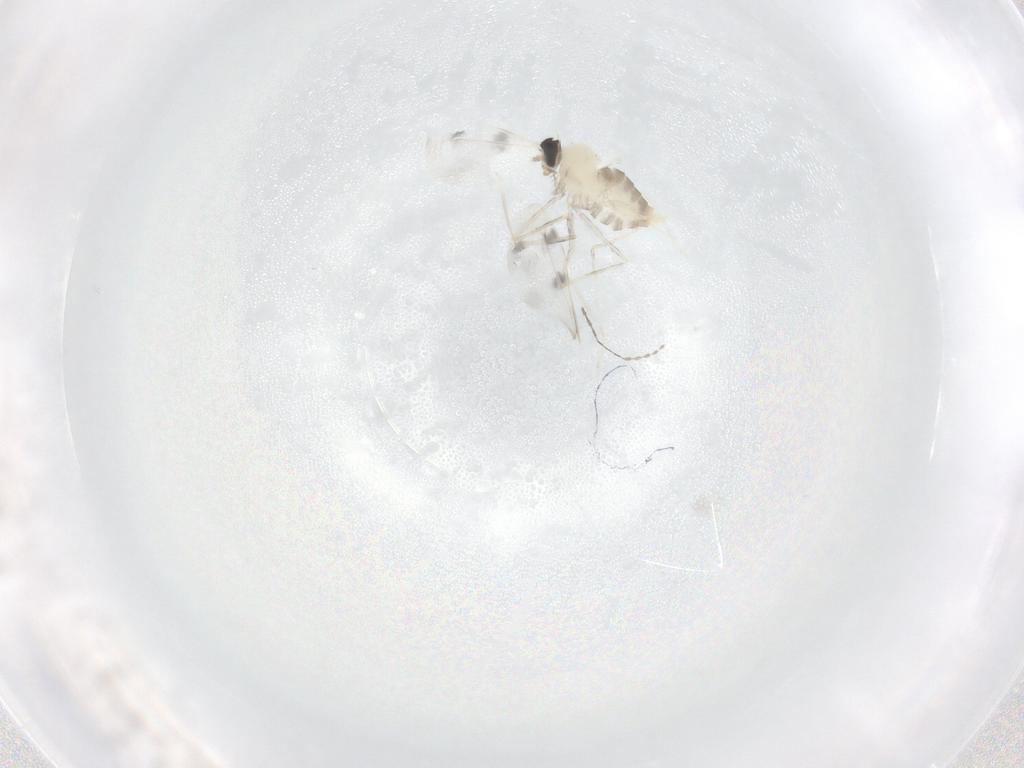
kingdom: Animalia
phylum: Arthropoda
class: Insecta
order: Diptera
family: Cecidomyiidae
